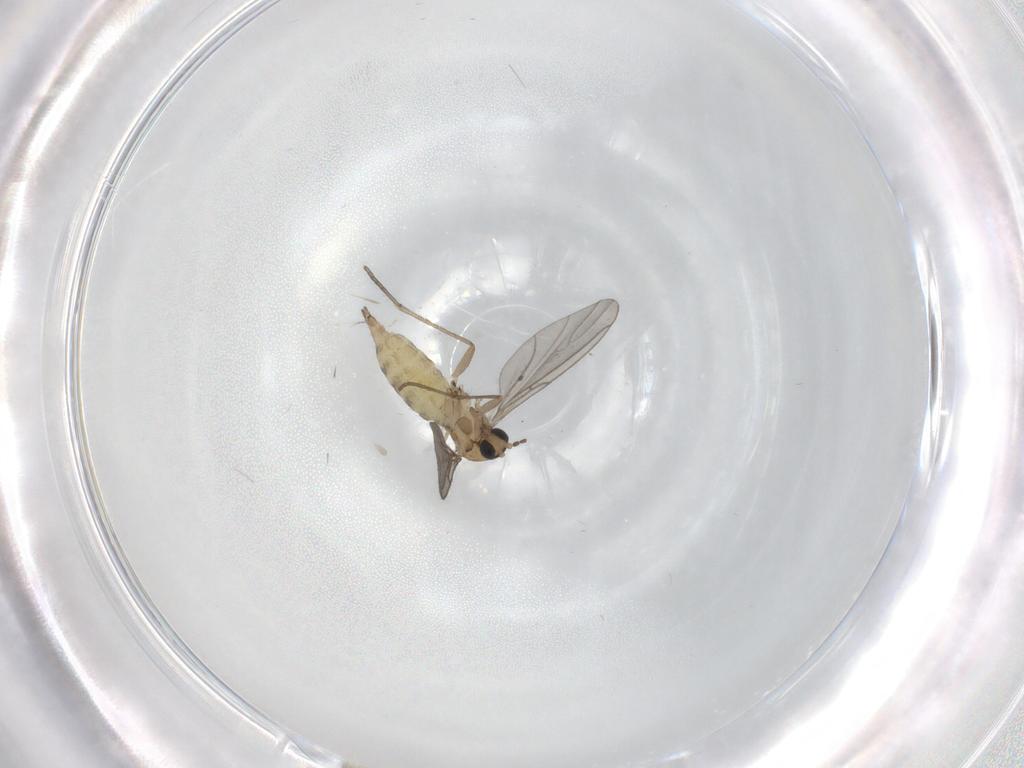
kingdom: Animalia
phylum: Arthropoda
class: Insecta
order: Diptera
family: Sciaridae
